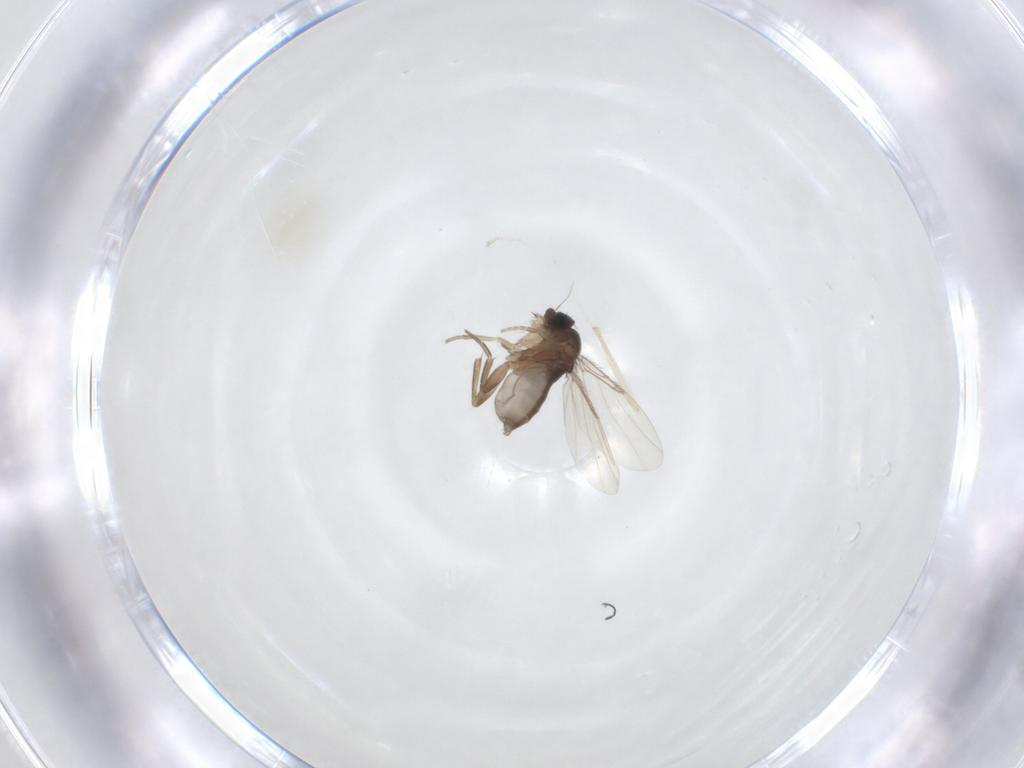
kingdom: Animalia
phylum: Arthropoda
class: Insecta
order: Diptera
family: Phoridae
